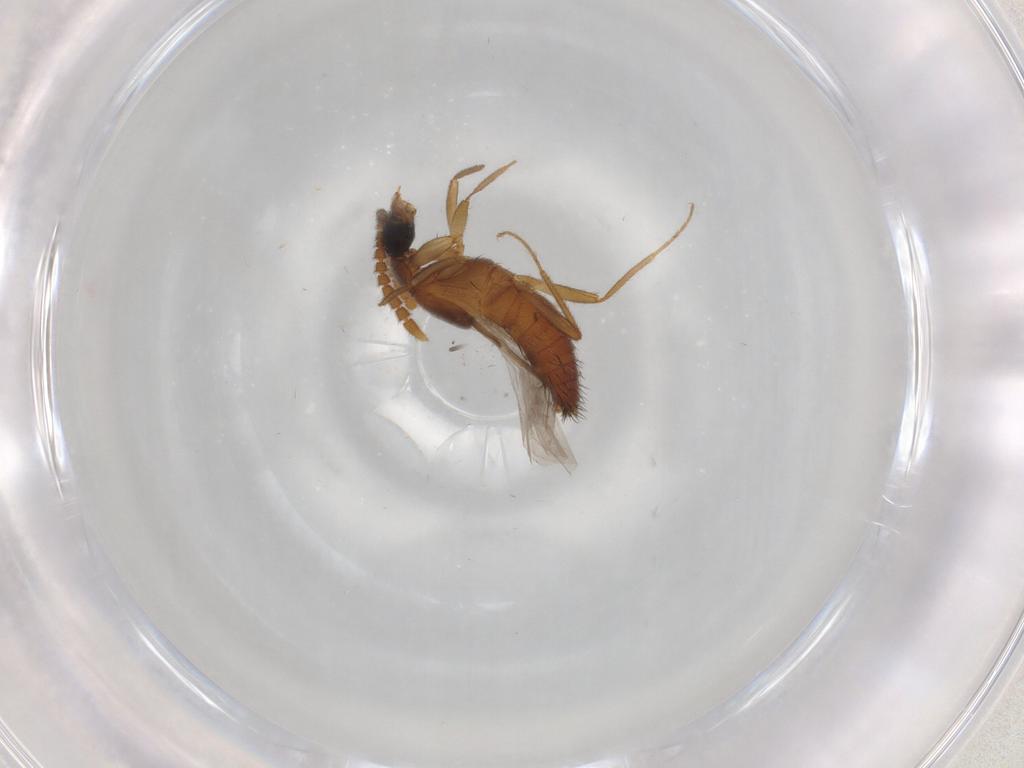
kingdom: Animalia
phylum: Arthropoda
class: Insecta
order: Coleoptera
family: Staphylinidae
